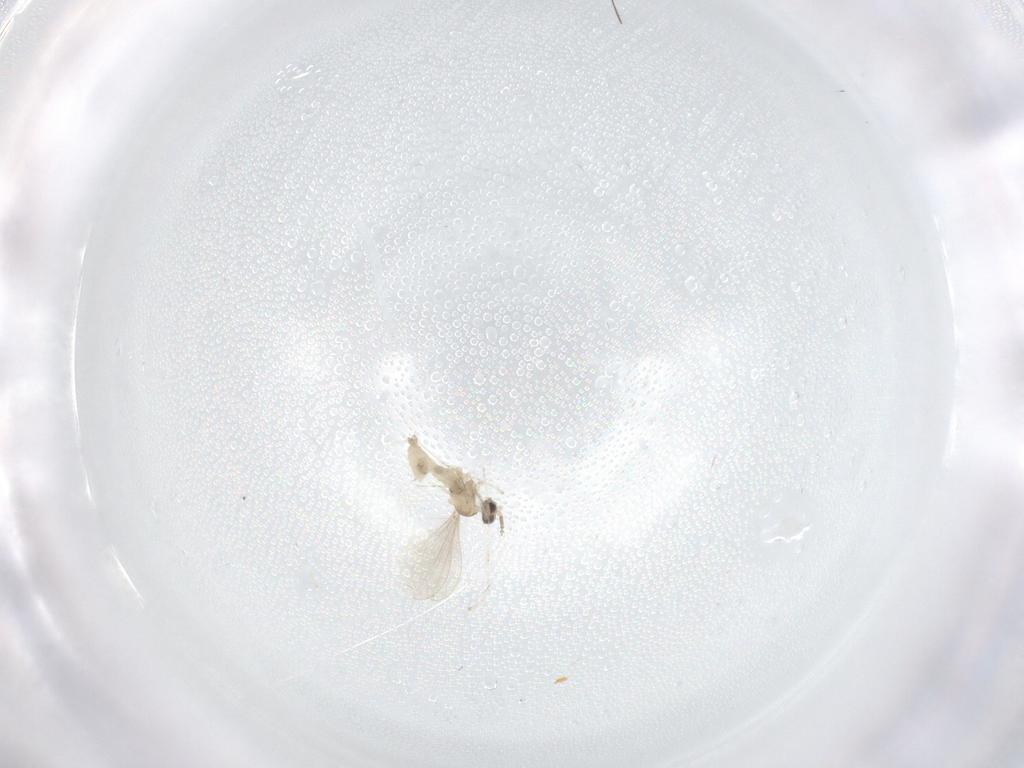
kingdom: Animalia
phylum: Arthropoda
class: Insecta
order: Diptera
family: Cecidomyiidae
